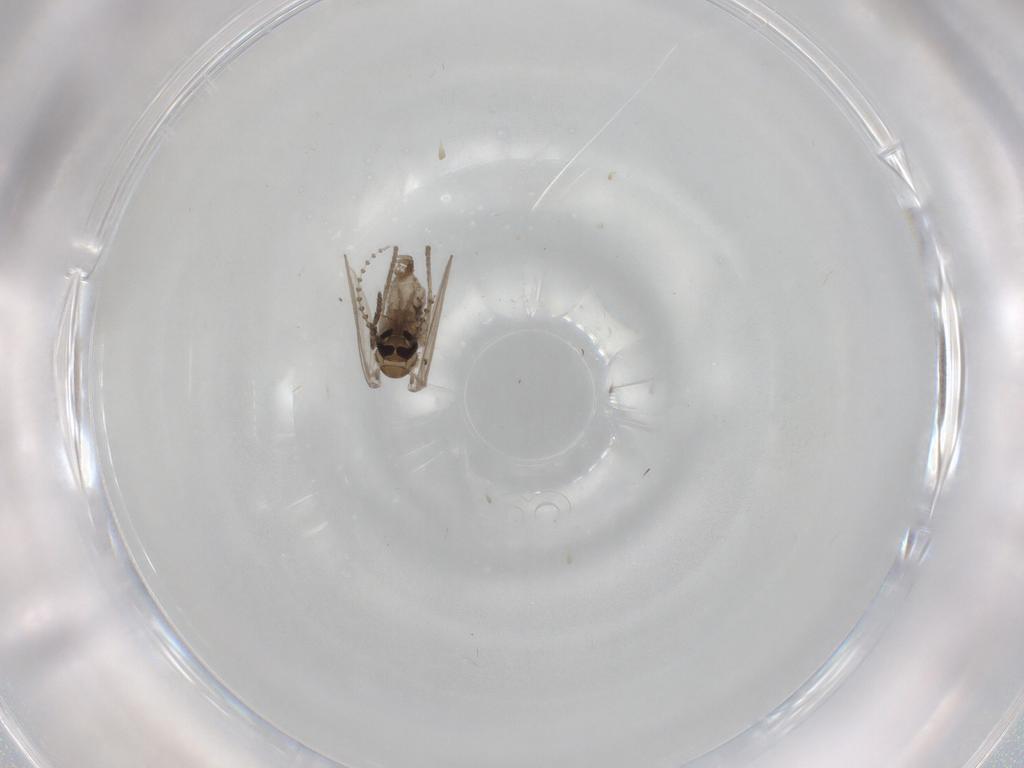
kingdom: Animalia
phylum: Arthropoda
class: Insecta
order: Diptera
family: Psychodidae
